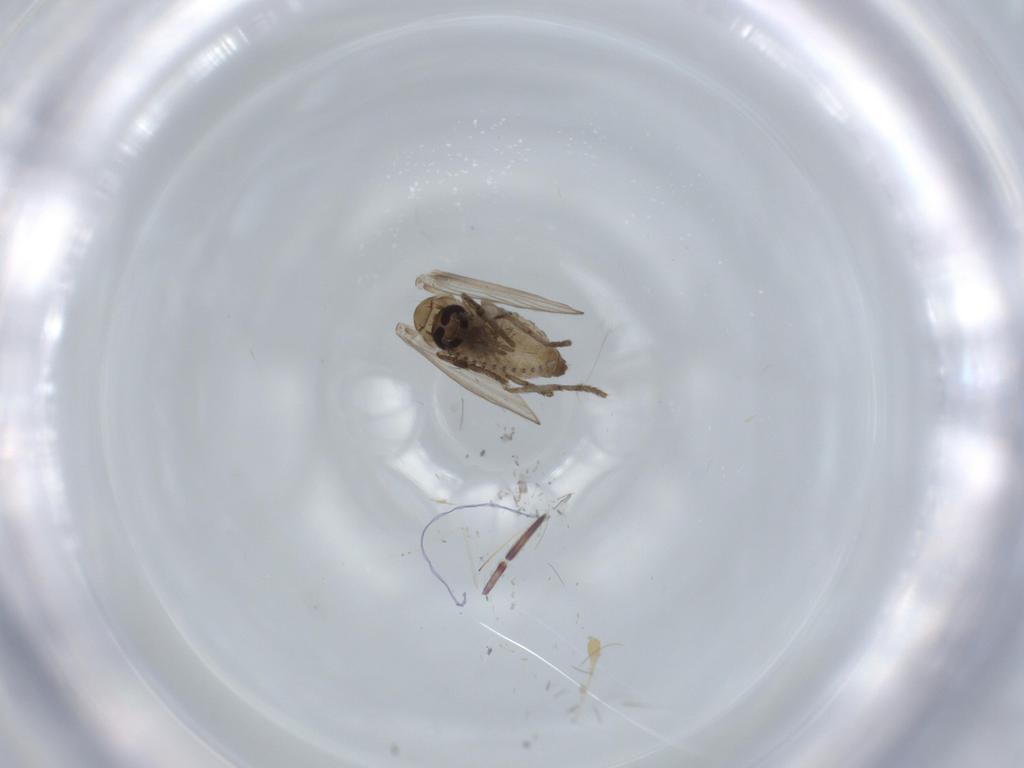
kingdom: Animalia
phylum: Arthropoda
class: Insecta
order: Diptera
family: Psychodidae
